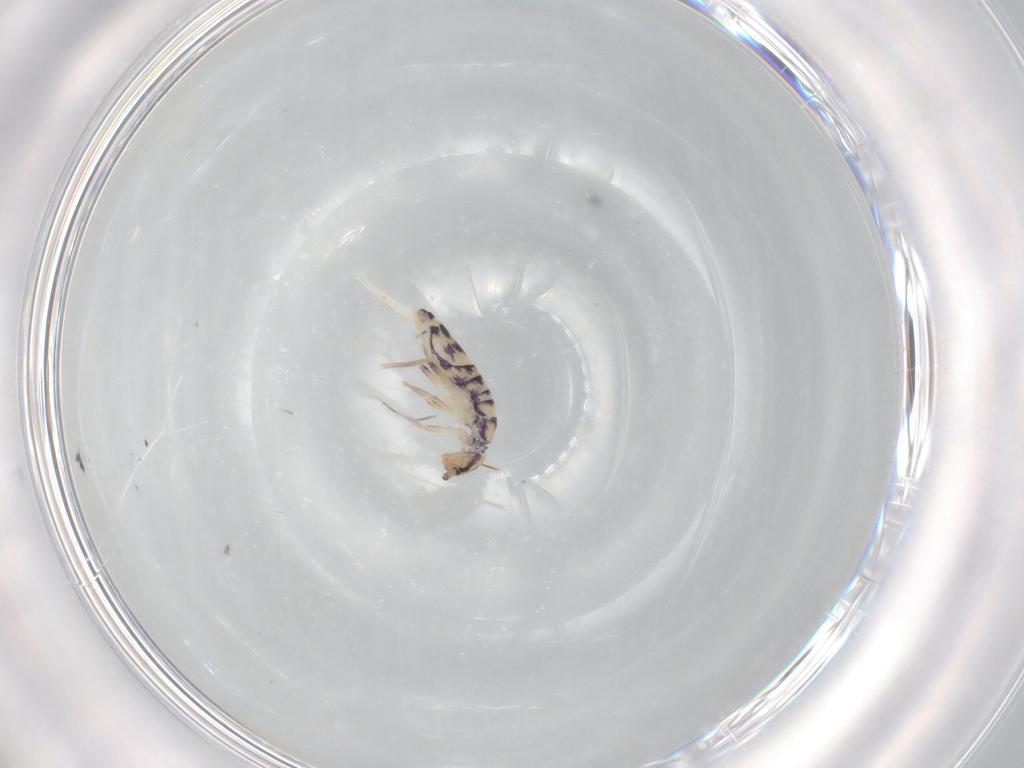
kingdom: Animalia
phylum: Arthropoda
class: Collembola
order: Entomobryomorpha
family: Entomobryidae
